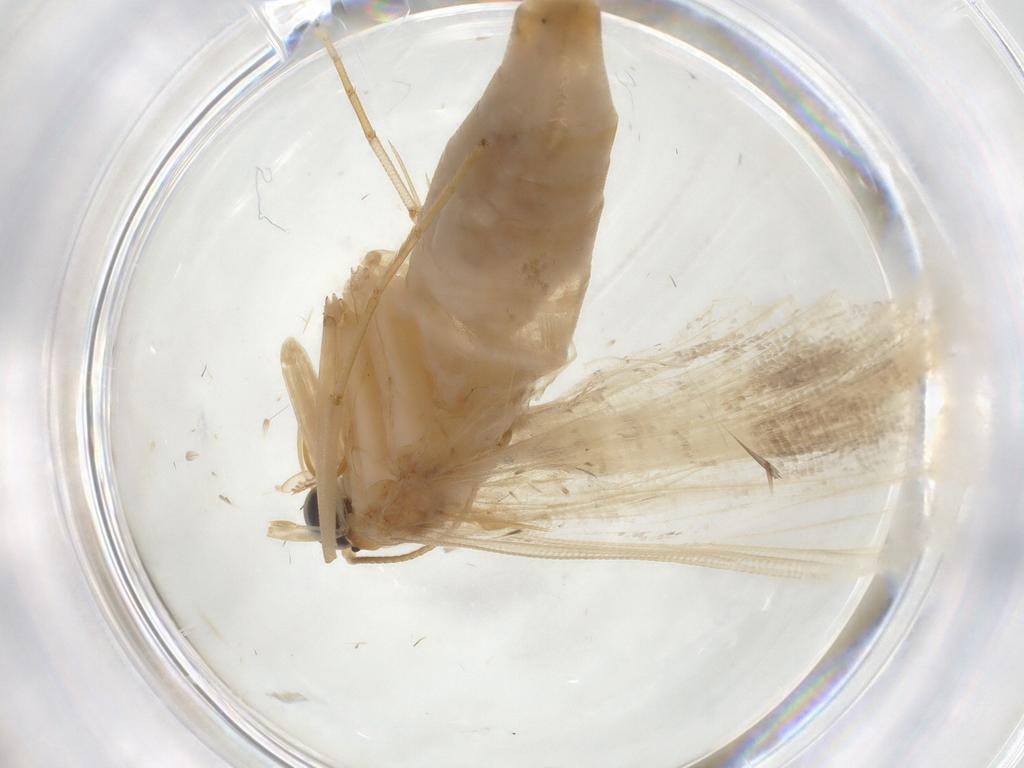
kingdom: Animalia
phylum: Arthropoda
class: Insecta
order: Lepidoptera
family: Crambidae
